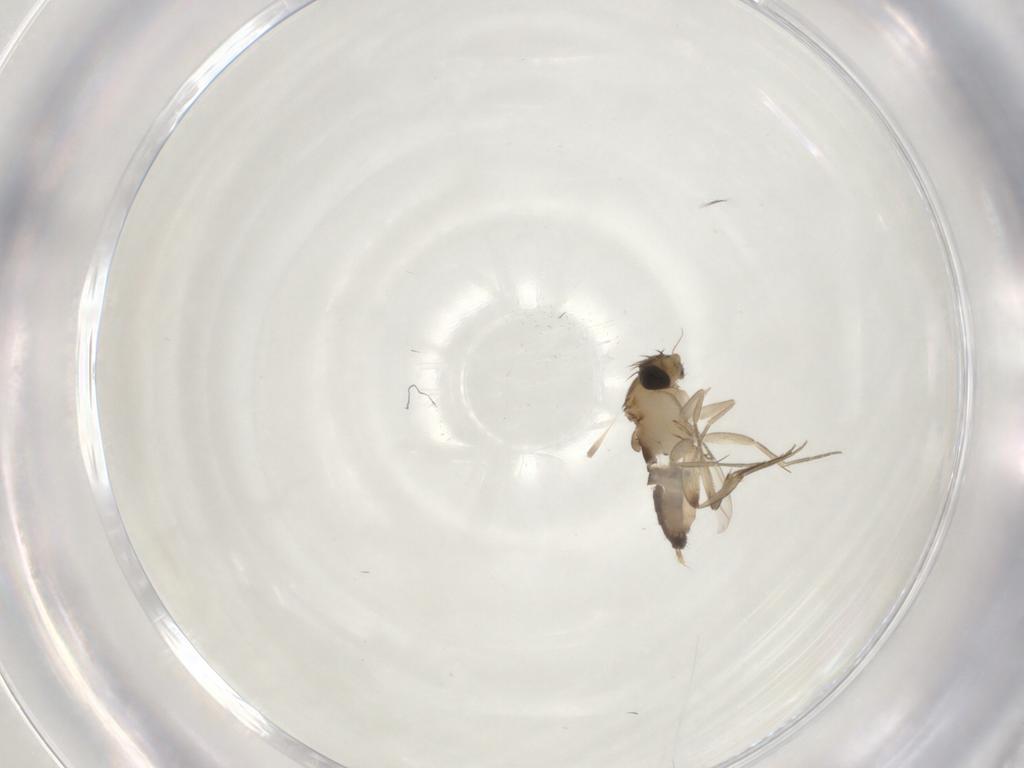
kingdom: Animalia
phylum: Arthropoda
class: Insecta
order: Diptera
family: Phoridae
